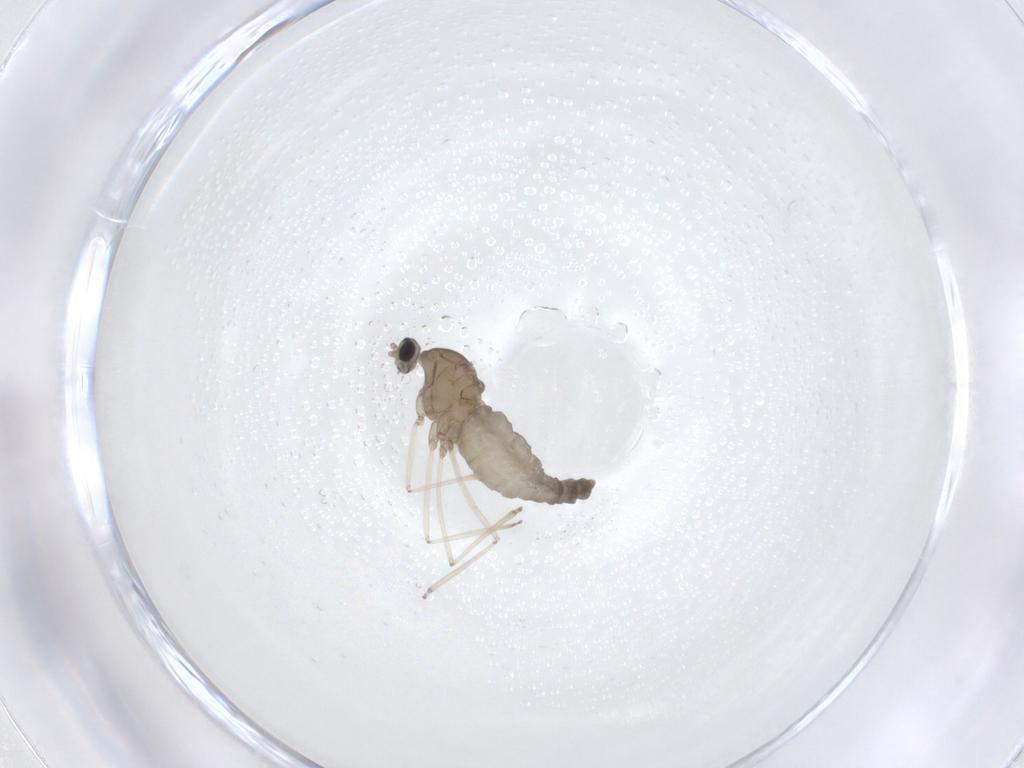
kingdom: Animalia
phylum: Arthropoda
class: Insecta
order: Diptera
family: Cecidomyiidae
